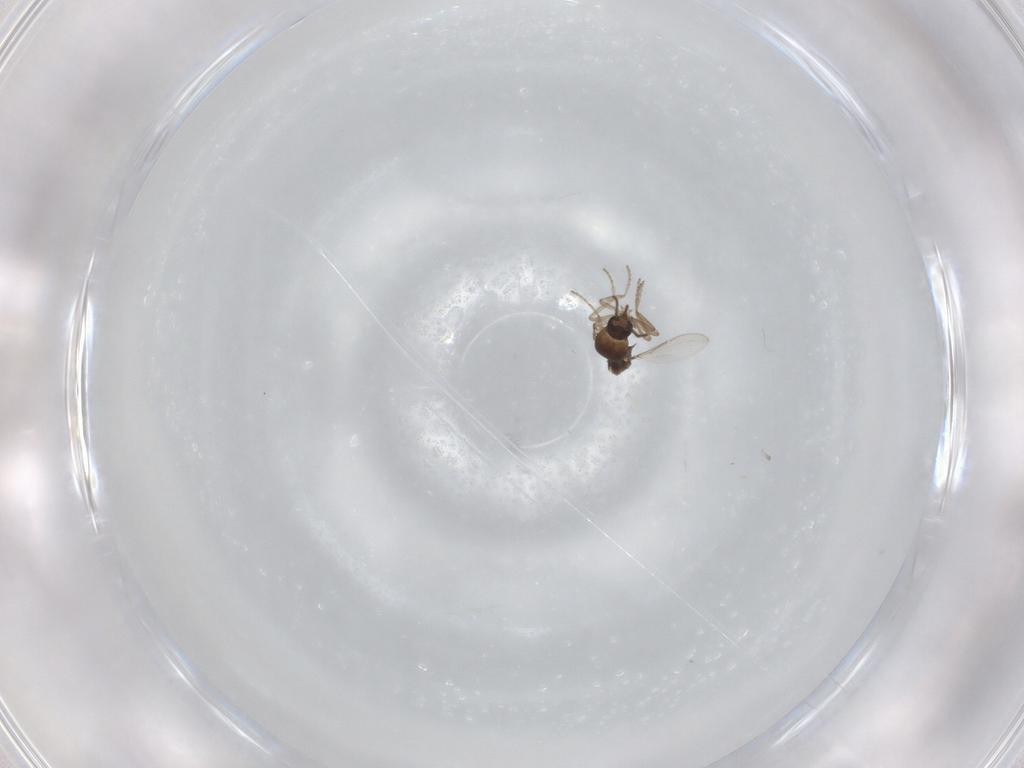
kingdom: Animalia
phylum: Arthropoda
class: Insecta
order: Diptera
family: Ceratopogonidae
